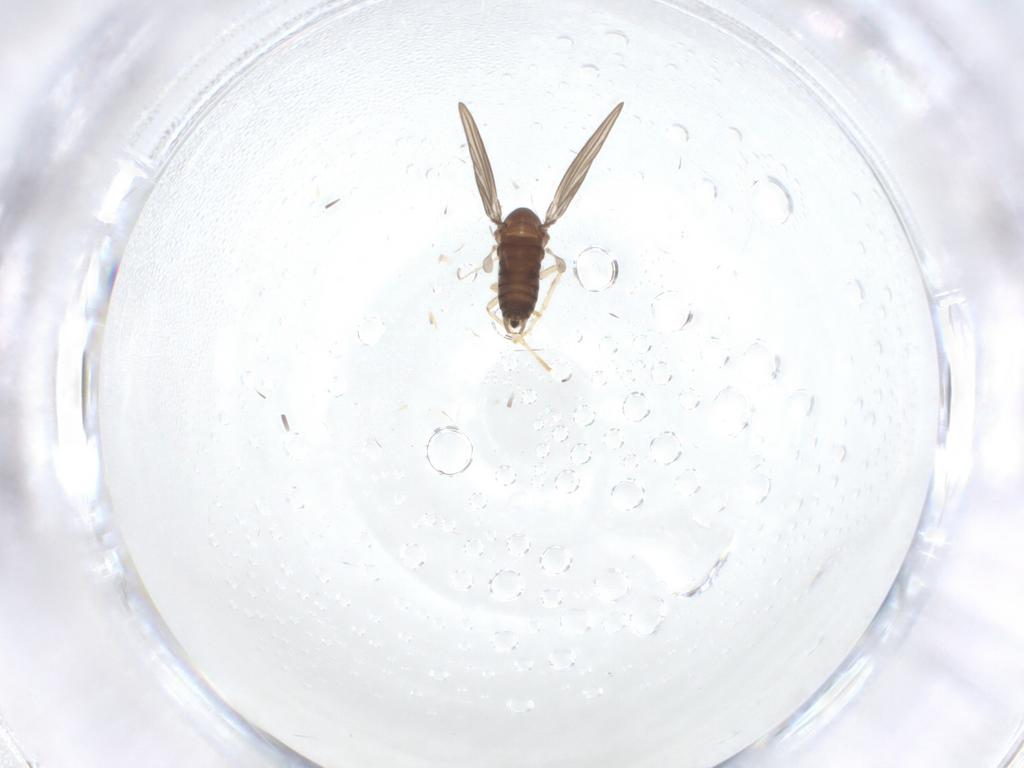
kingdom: Animalia
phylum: Arthropoda
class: Insecta
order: Diptera
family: Psychodidae
